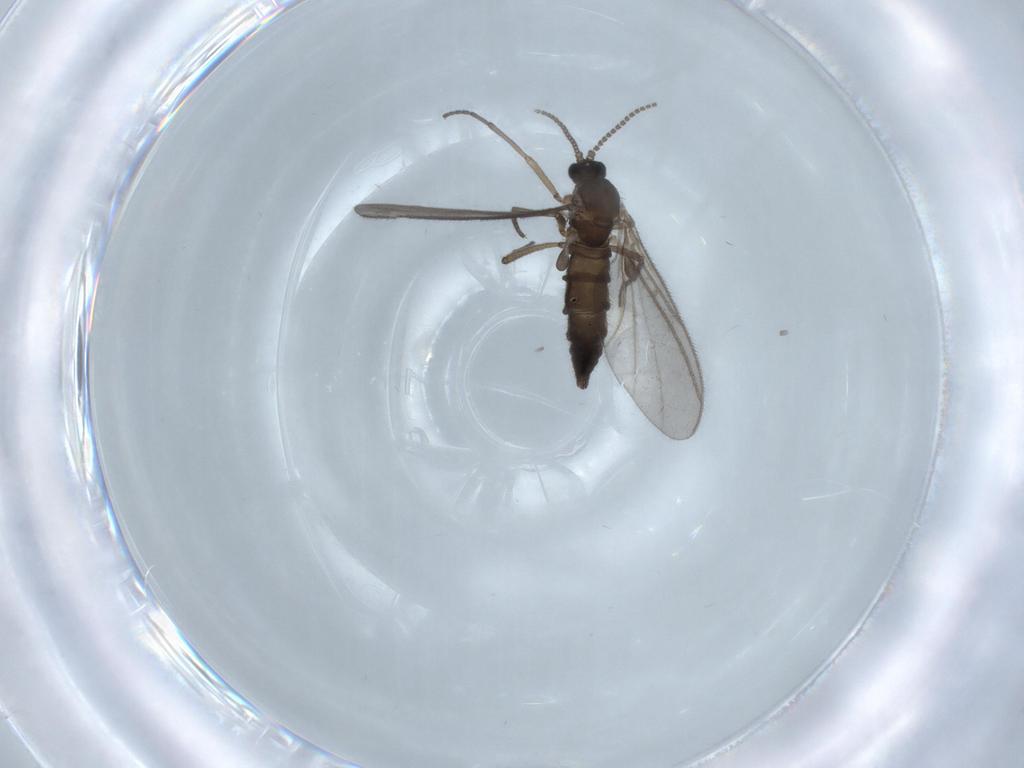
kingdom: Animalia
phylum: Arthropoda
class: Insecta
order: Diptera
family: Sciaridae
